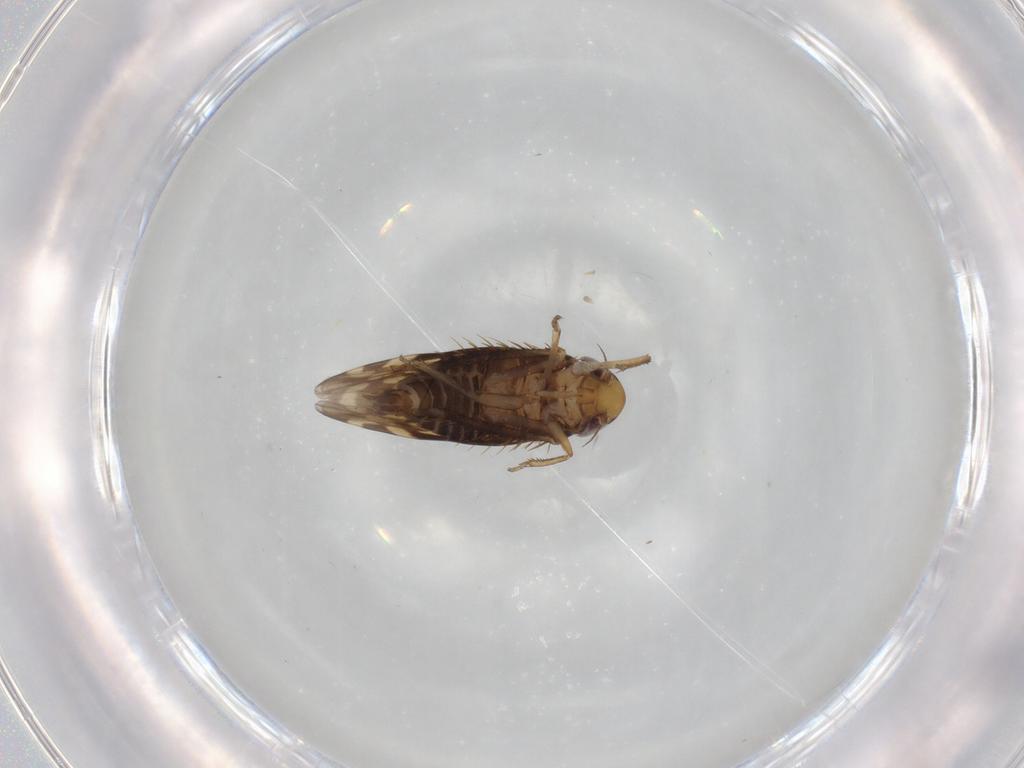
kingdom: Animalia
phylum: Arthropoda
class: Insecta
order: Hemiptera
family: Cicadellidae
